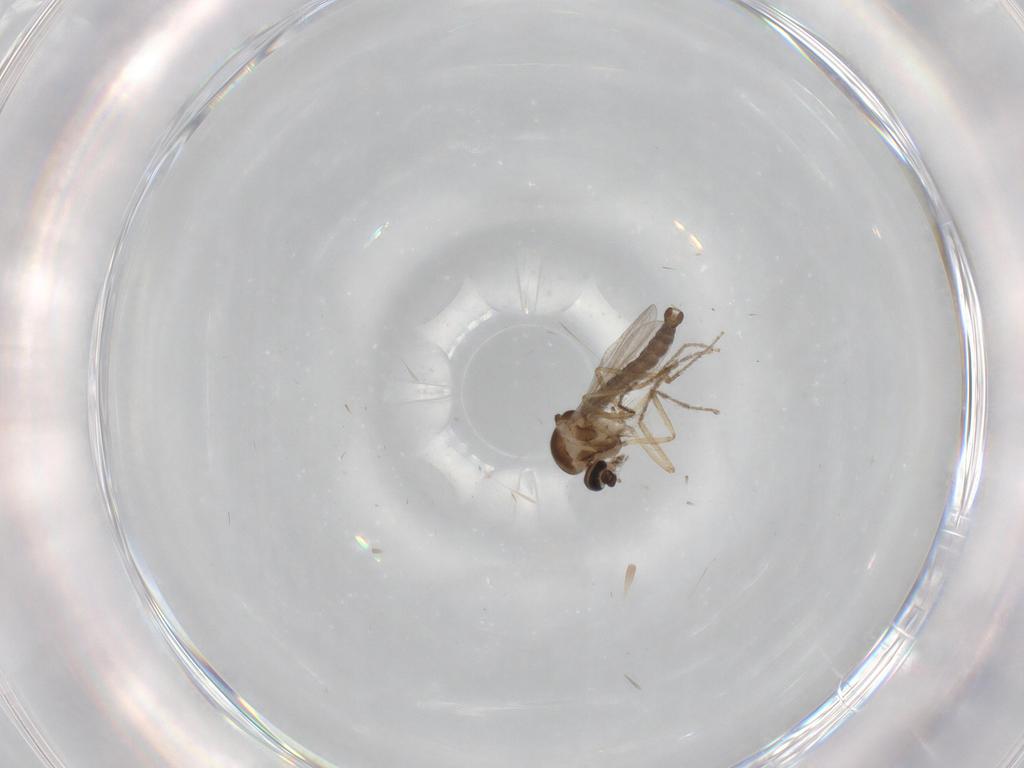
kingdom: Animalia
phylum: Arthropoda
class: Insecta
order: Diptera
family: Ceratopogonidae
